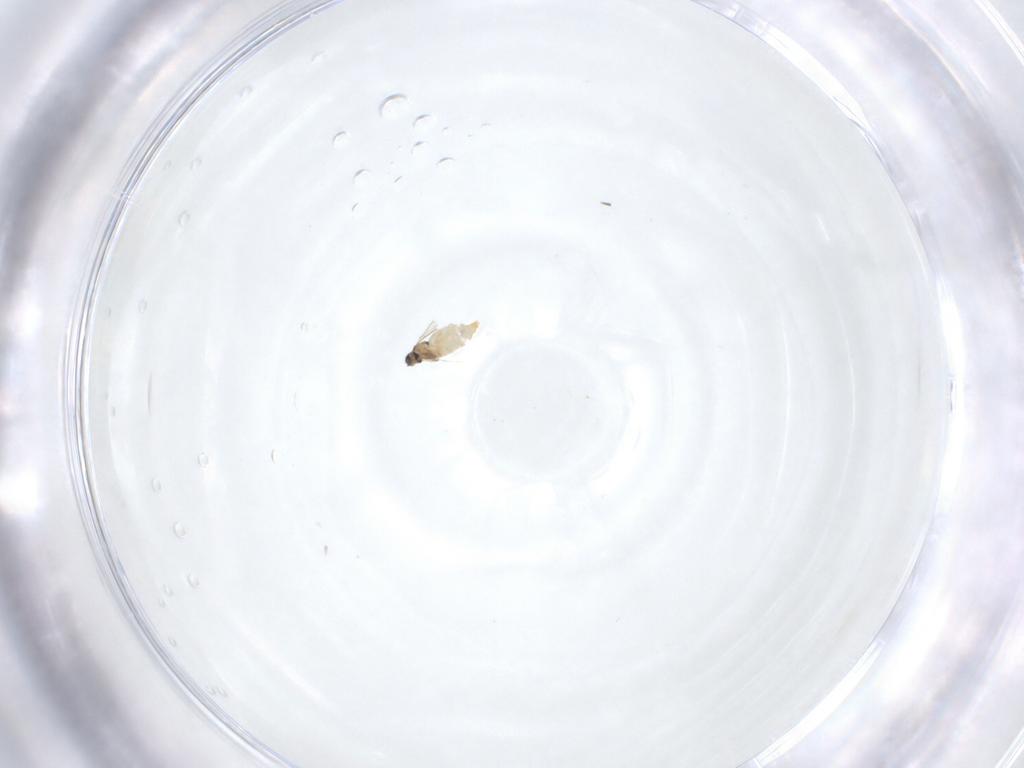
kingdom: Animalia
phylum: Arthropoda
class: Insecta
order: Diptera
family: Cecidomyiidae
